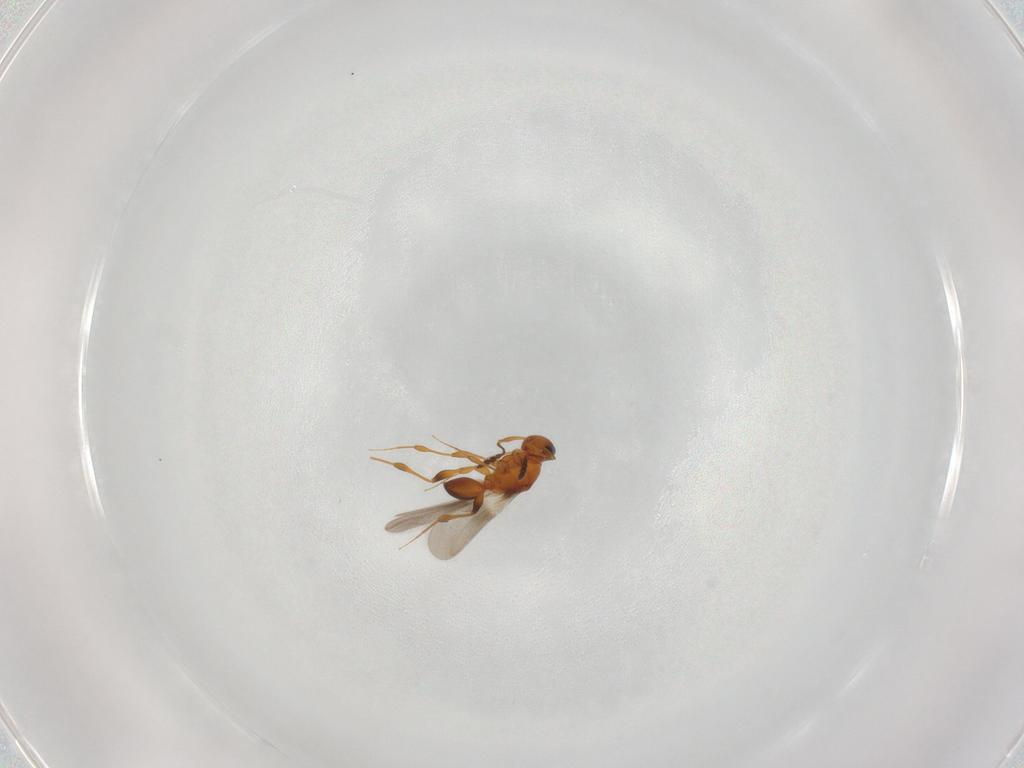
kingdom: Animalia
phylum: Arthropoda
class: Insecta
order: Hymenoptera
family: Platygastridae
